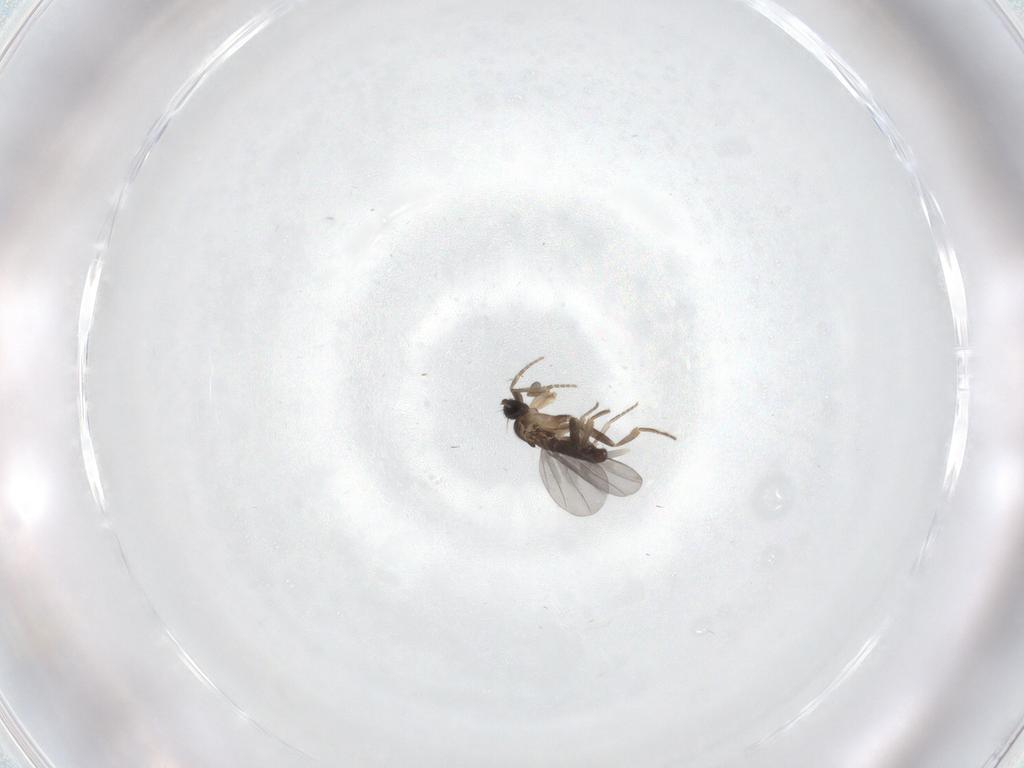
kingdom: Animalia
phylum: Arthropoda
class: Insecta
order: Diptera
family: Phoridae
